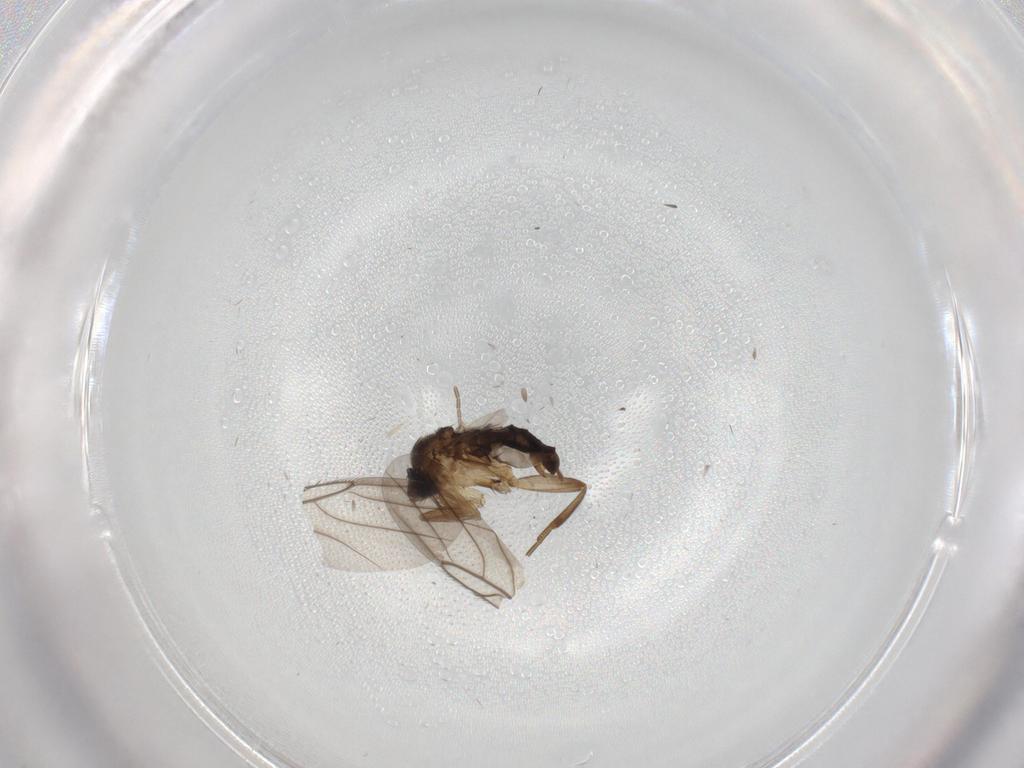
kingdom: Animalia
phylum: Arthropoda
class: Insecta
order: Diptera
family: Phoridae
